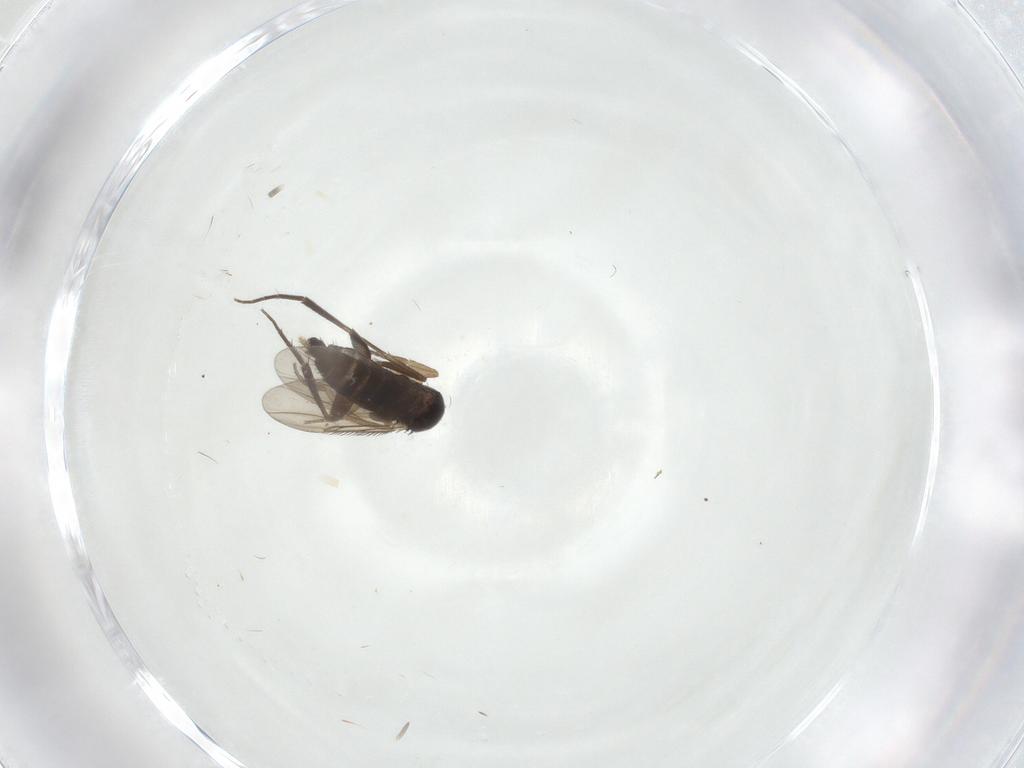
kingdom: Animalia
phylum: Arthropoda
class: Insecta
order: Diptera
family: Phoridae
